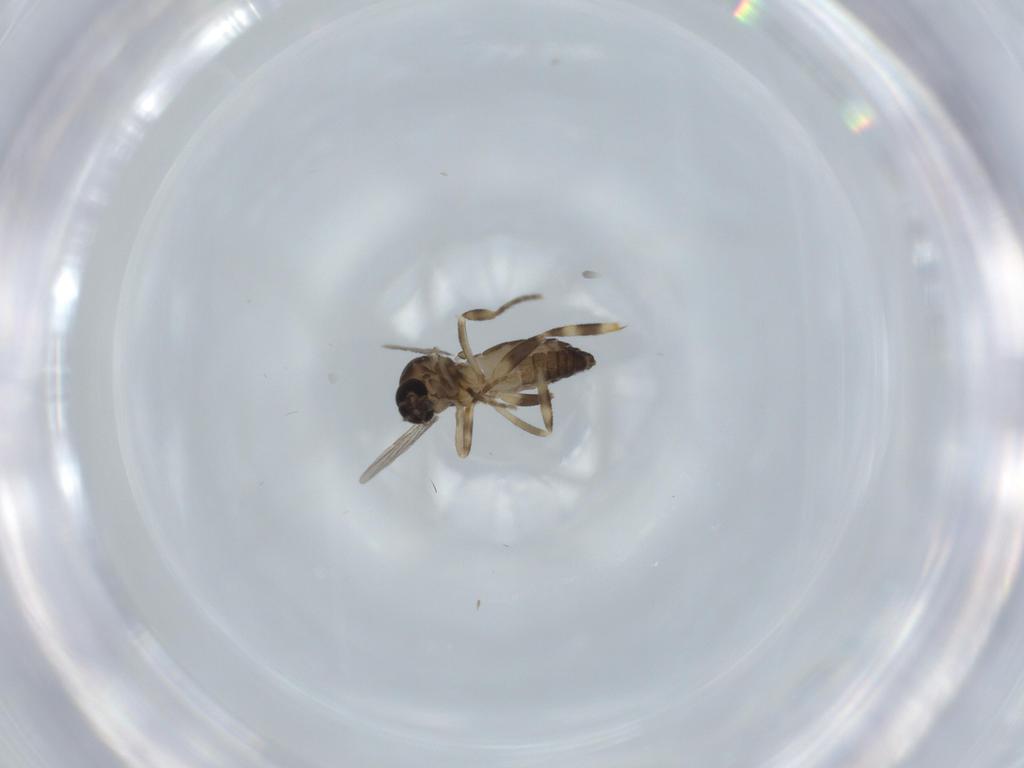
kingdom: Animalia
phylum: Arthropoda
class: Insecta
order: Diptera
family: Ceratopogonidae
